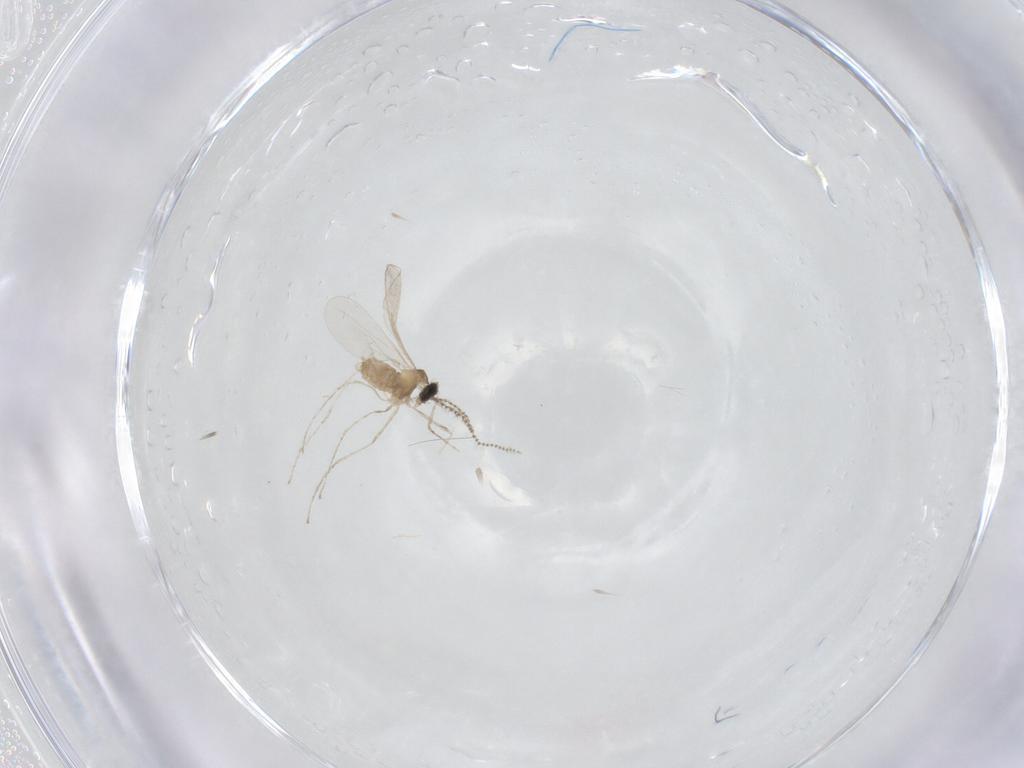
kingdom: Animalia
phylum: Arthropoda
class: Insecta
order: Diptera
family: Cecidomyiidae
